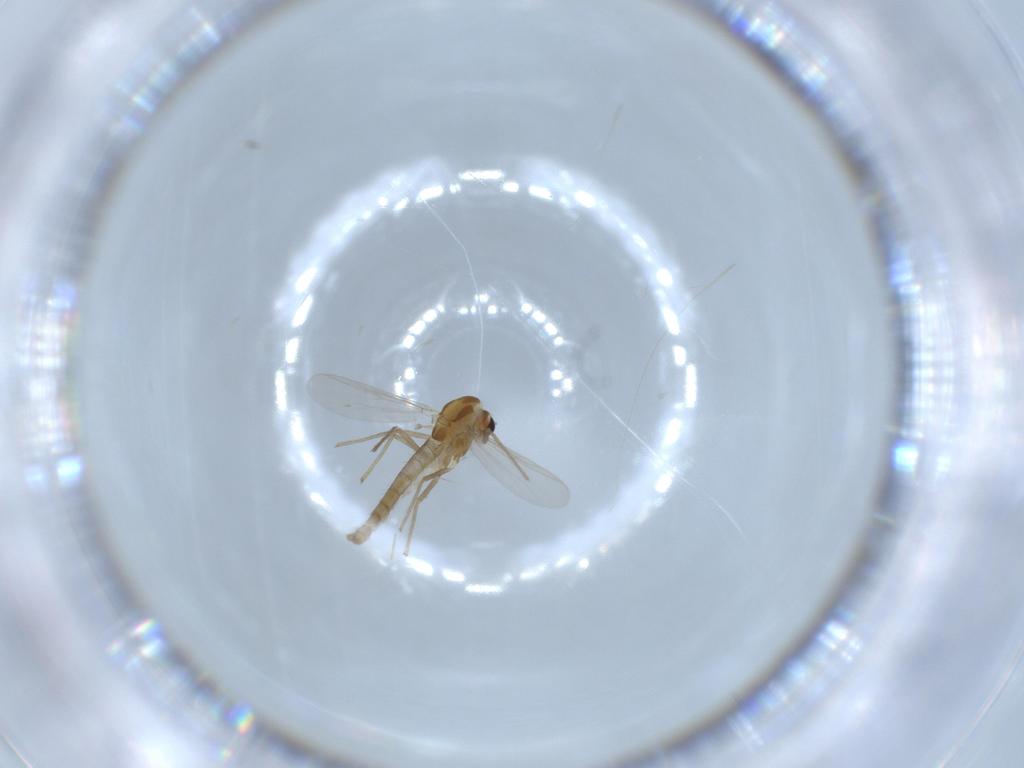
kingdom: Animalia
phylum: Arthropoda
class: Insecta
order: Diptera
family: Chironomidae
